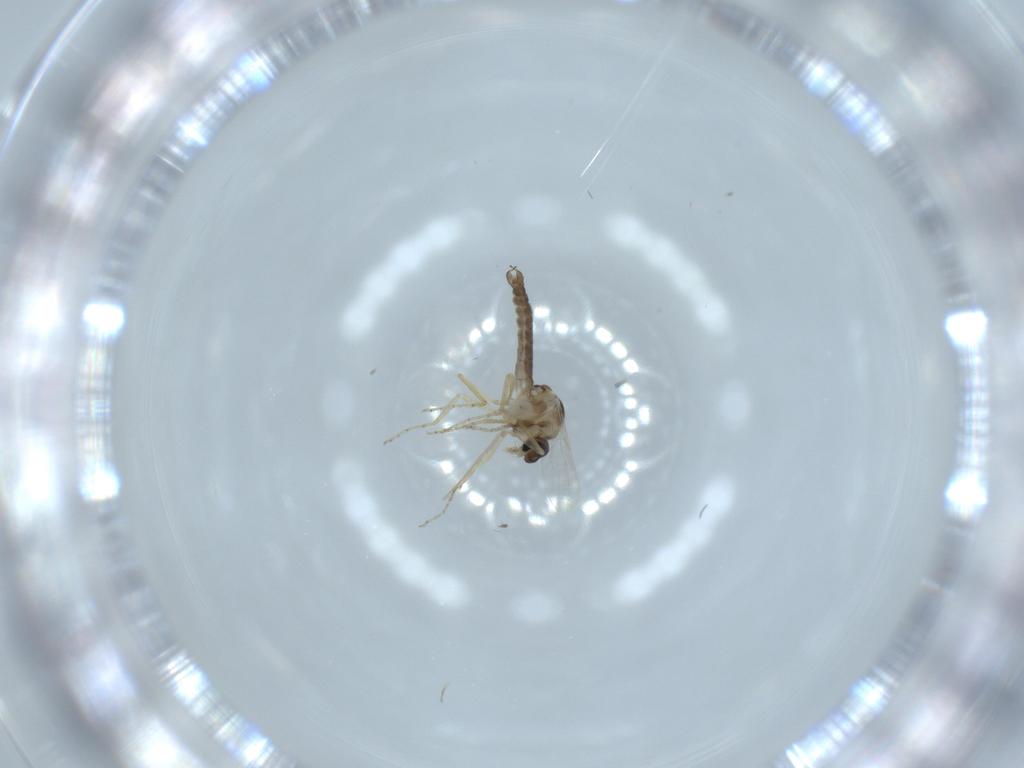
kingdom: Animalia
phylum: Arthropoda
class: Insecta
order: Diptera
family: Ceratopogonidae
